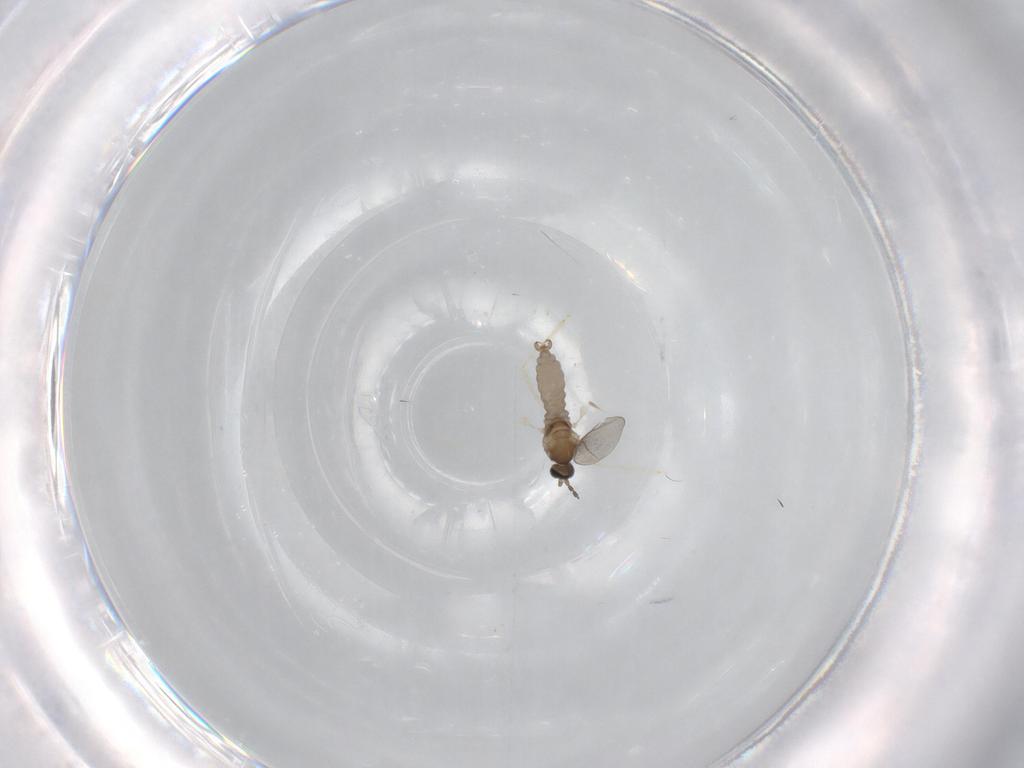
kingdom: Animalia
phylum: Arthropoda
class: Insecta
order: Diptera
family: Cecidomyiidae
